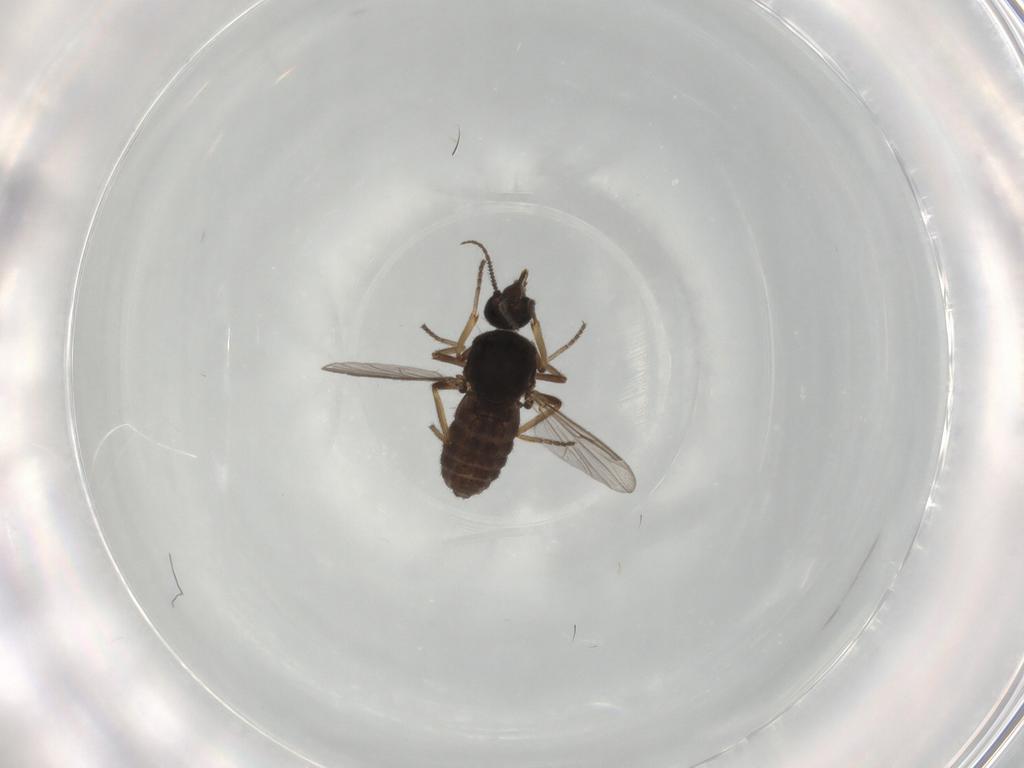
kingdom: Animalia
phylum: Arthropoda
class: Insecta
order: Diptera
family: Ceratopogonidae
